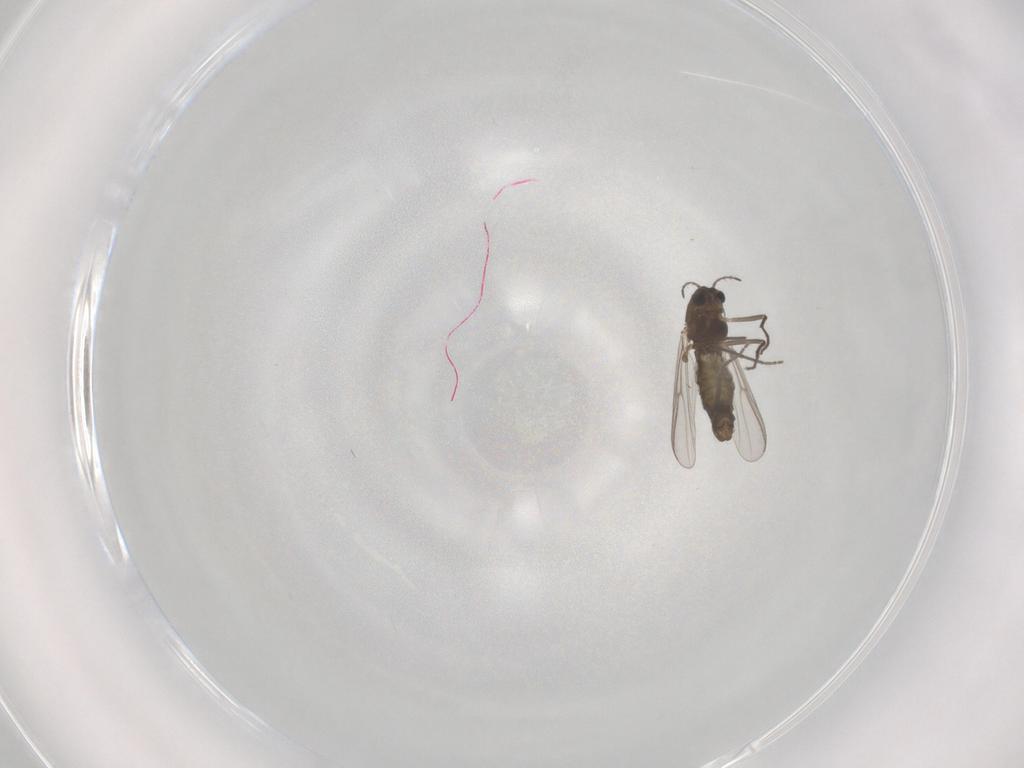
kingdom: Animalia
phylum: Arthropoda
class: Insecta
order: Diptera
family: Chironomidae
